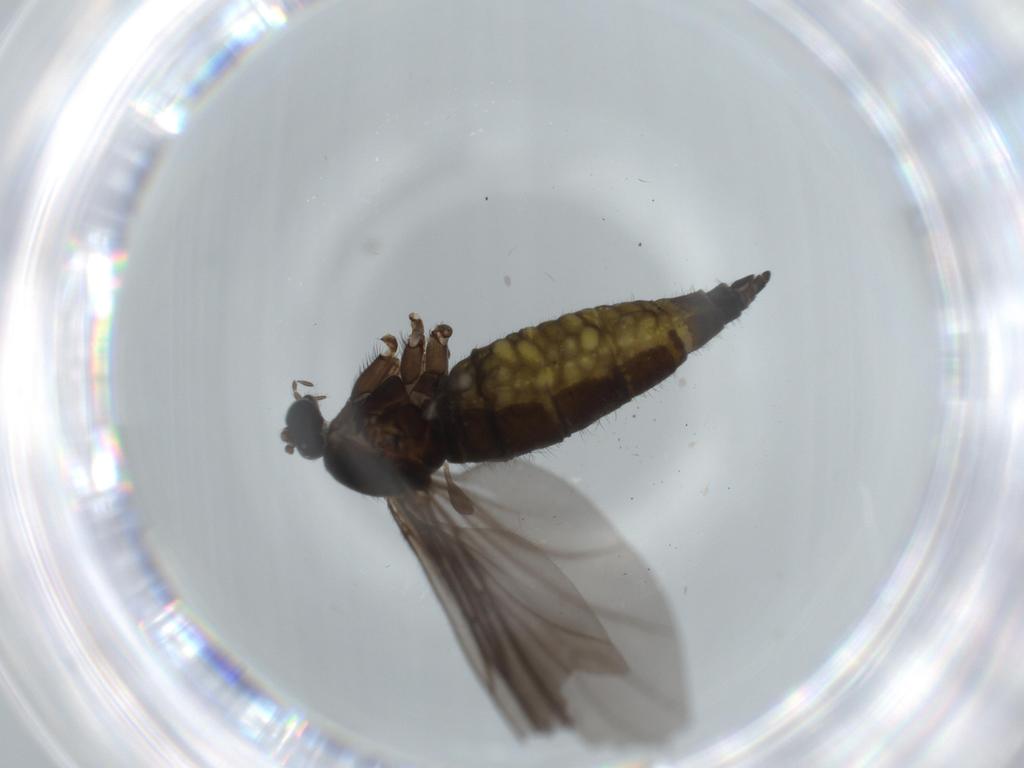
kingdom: Animalia
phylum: Arthropoda
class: Insecta
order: Diptera
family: Sciaridae
